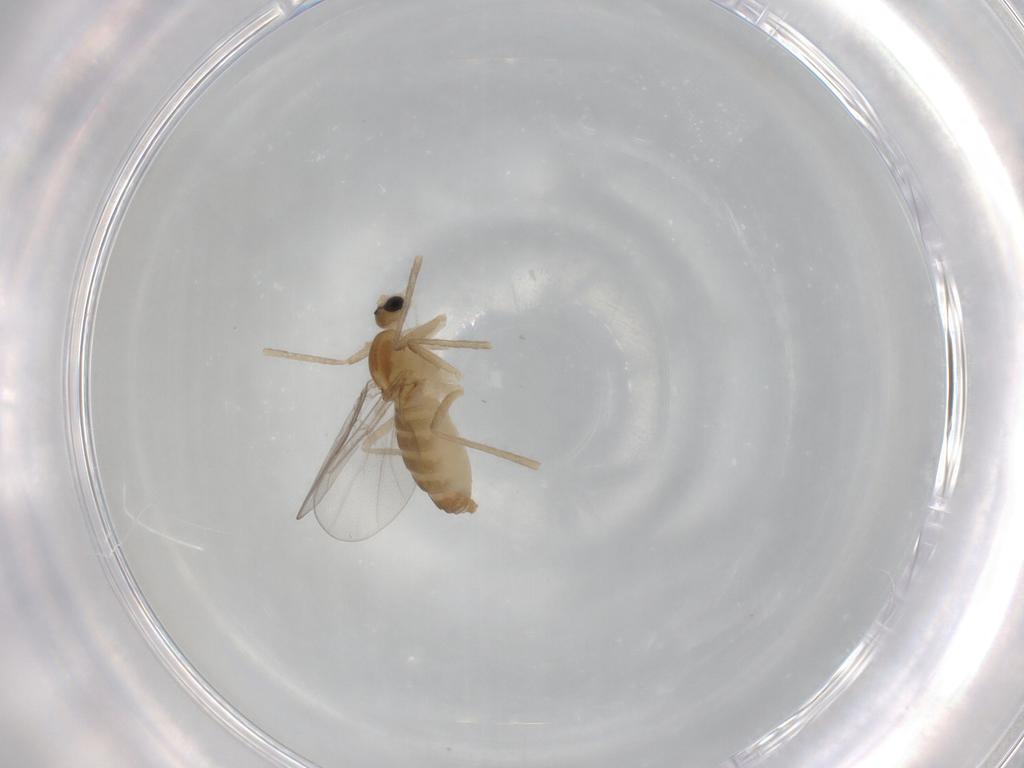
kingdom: Animalia
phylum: Arthropoda
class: Insecta
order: Diptera
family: Cecidomyiidae
